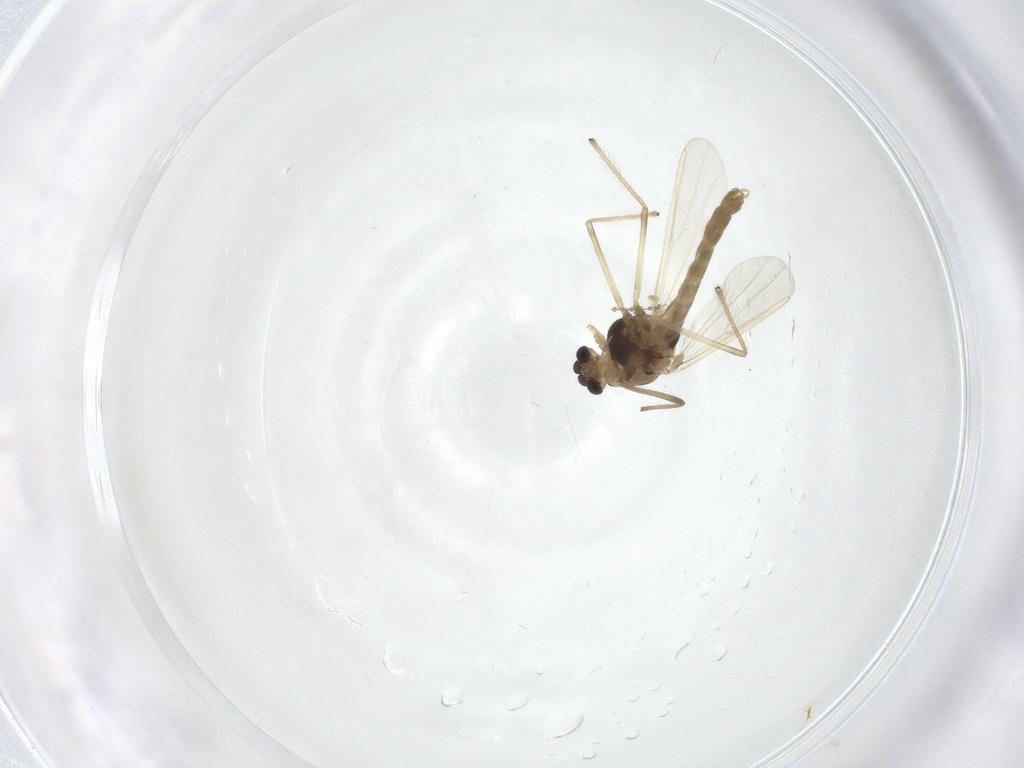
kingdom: Animalia
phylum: Arthropoda
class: Insecta
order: Diptera
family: Chironomidae
